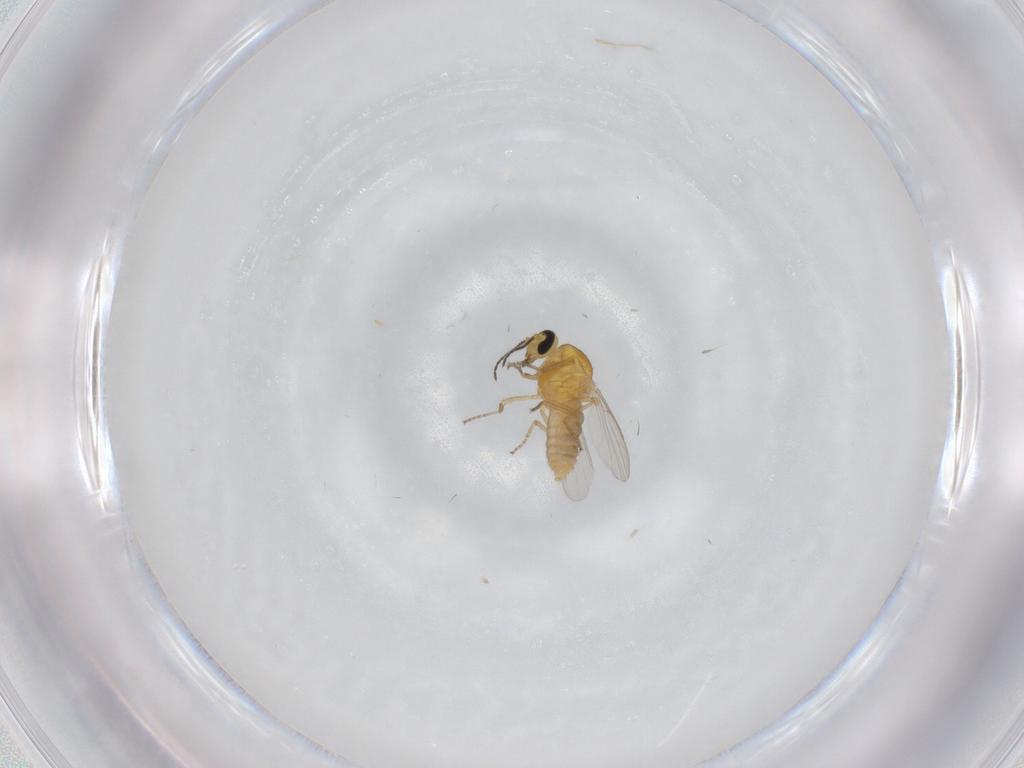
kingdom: Animalia
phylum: Arthropoda
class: Insecta
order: Diptera
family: Ceratopogonidae
